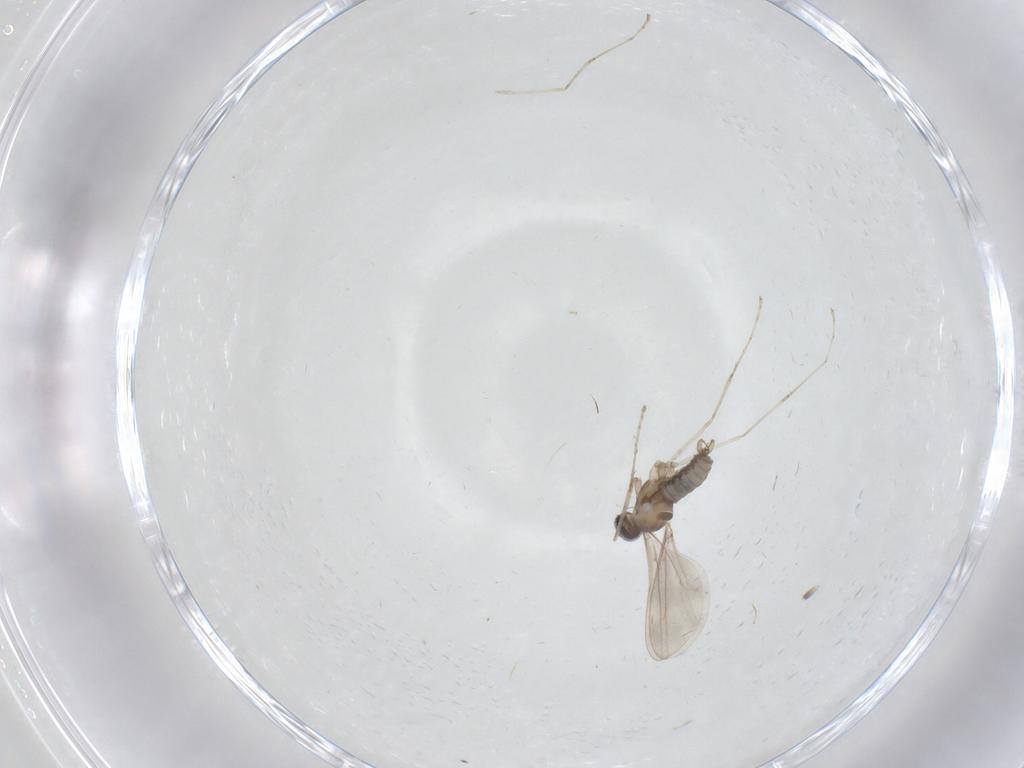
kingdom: Animalia
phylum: Arthropoda
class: Insecta
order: Diptera
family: Cecidomyiidae
